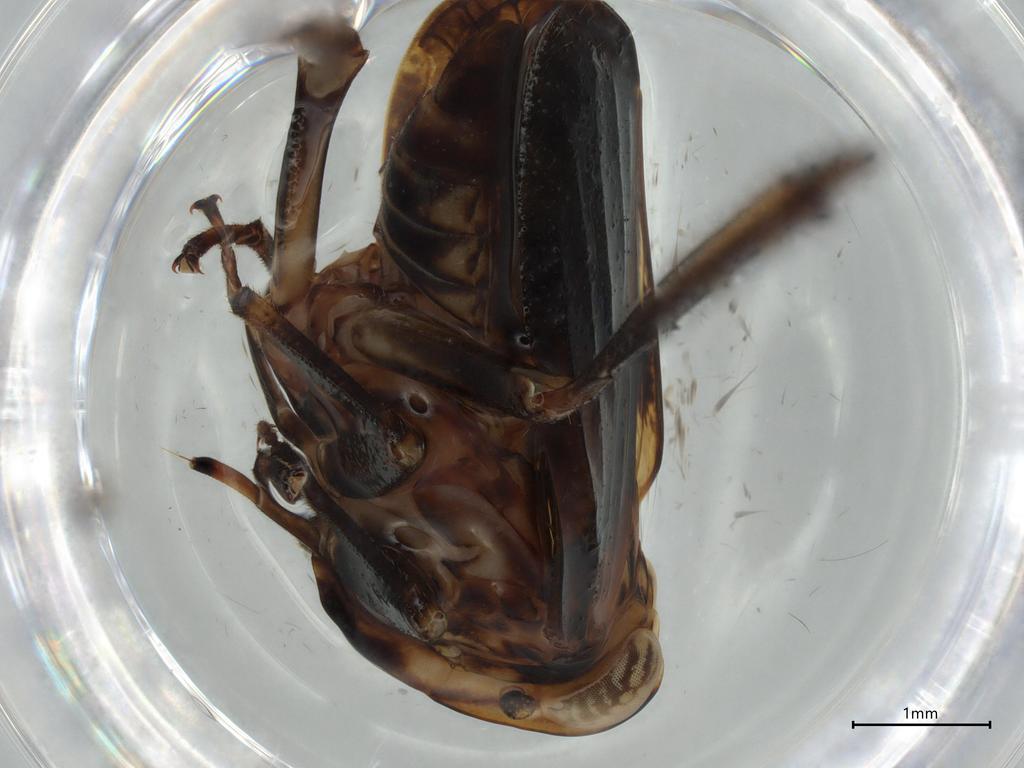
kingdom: Animalia
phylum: Arthropoda
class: Insecta
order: Hemiptera
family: Issidae
